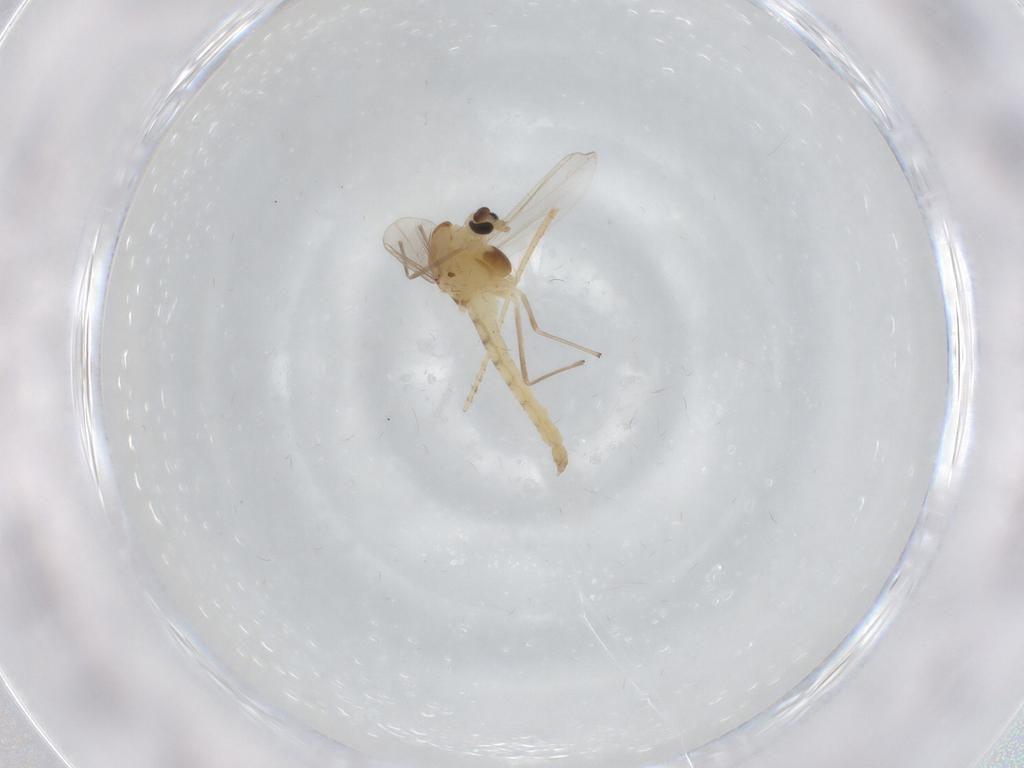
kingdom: Animalia
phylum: Arthropoda
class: Insecta
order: Diptera
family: Chironomidae
